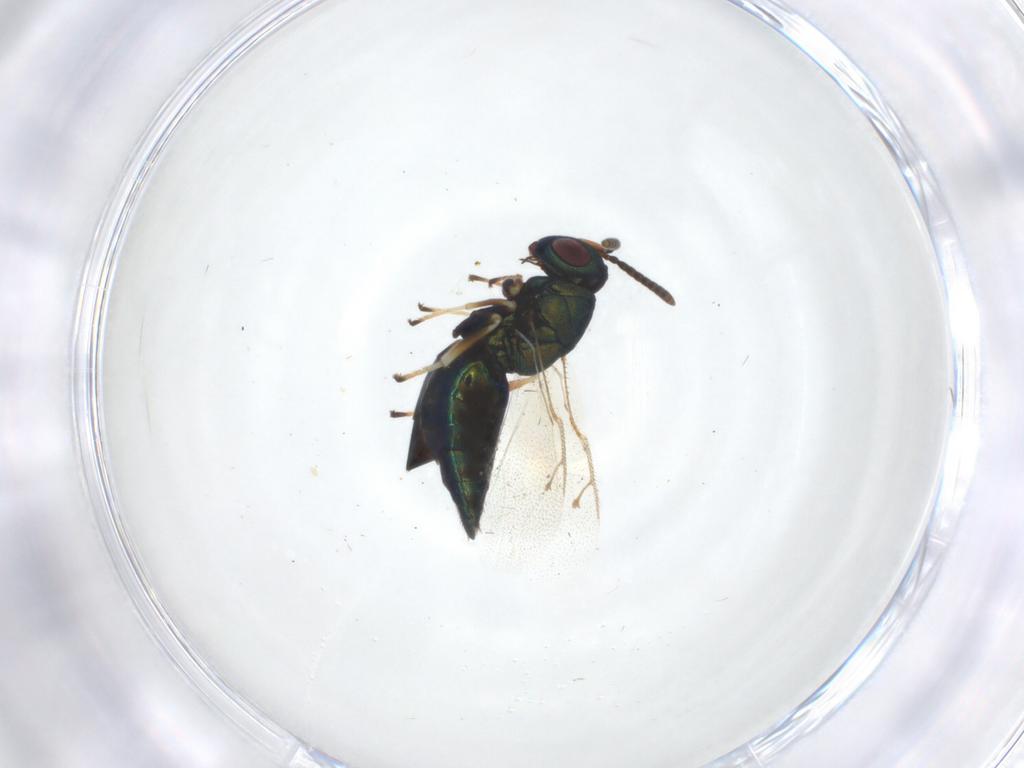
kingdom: Animalia
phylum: Arthropoda
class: Insecta
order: Hymenoptera
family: Pteromalidae
